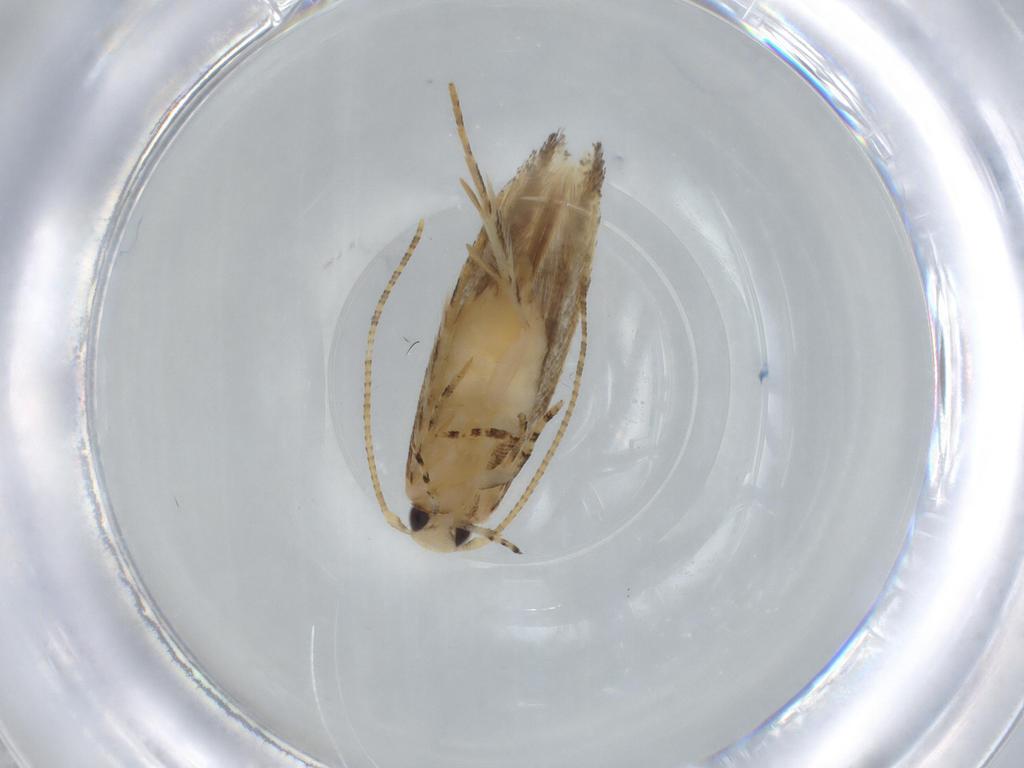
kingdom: Animalia
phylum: Arthropoda
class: Insecta
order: Lepidoptera
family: Gelechiidae
